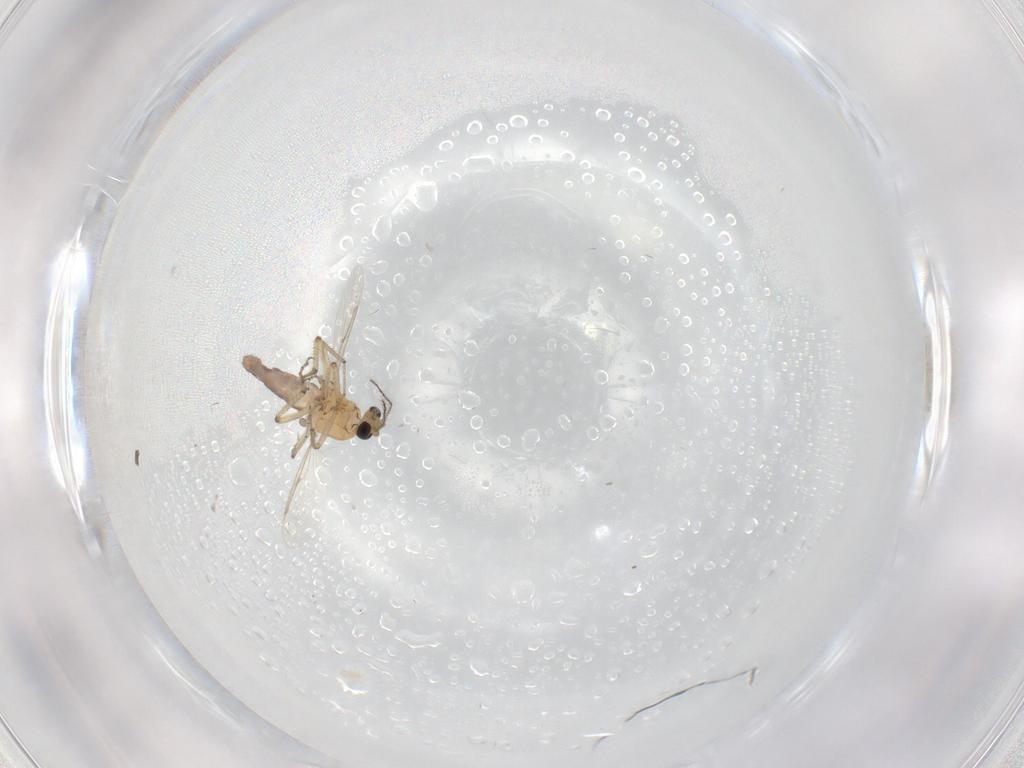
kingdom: Animalia
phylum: Arthropoda
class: Insecta
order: Diptera
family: Ceratopogonidae
